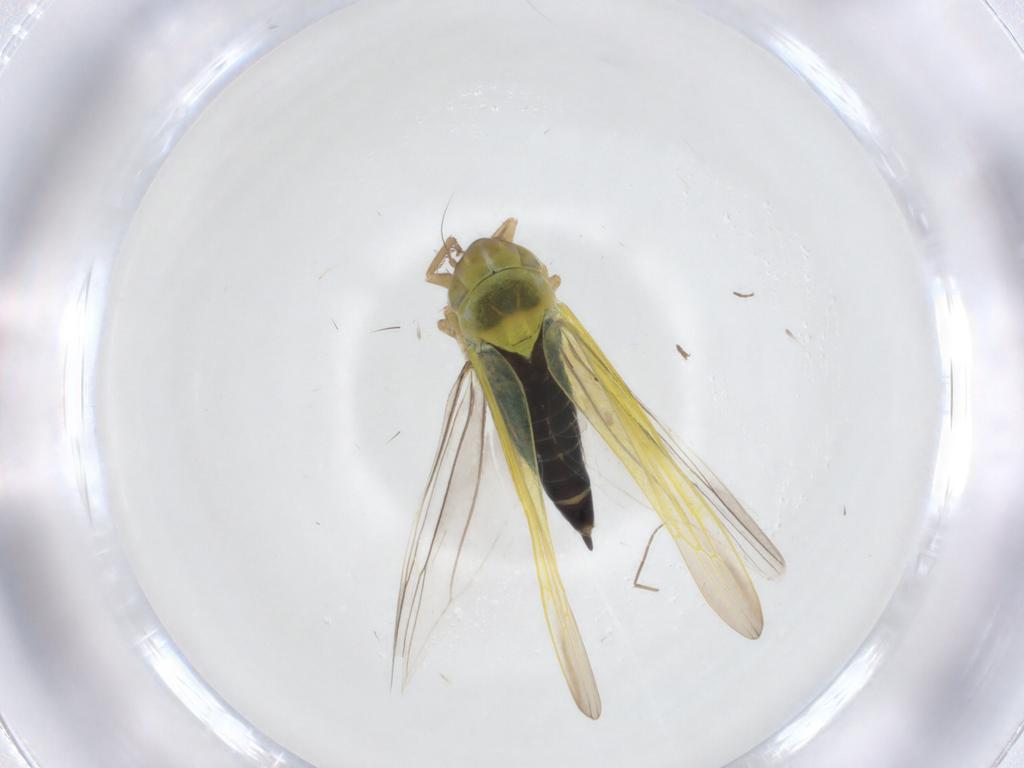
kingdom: Animalia
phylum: Arthropoda
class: Insecta
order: Hemiptera
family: Cicadellidae
